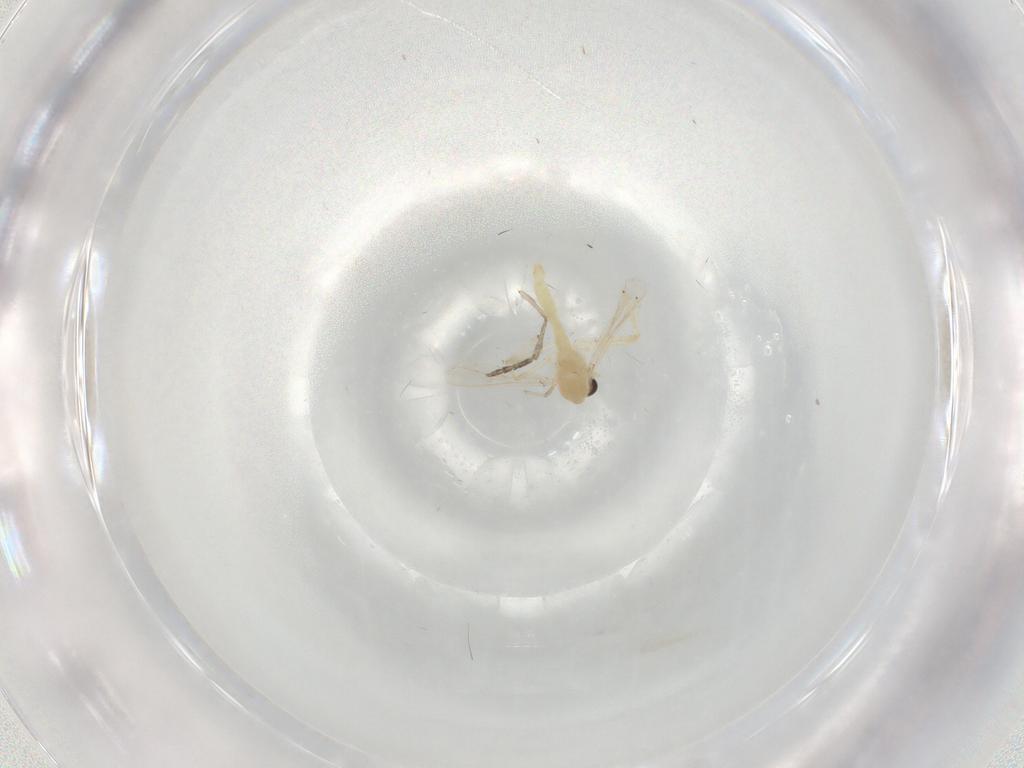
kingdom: Animalia
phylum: Arthropoda
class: Insecta
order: Diptera
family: Chironomidae
